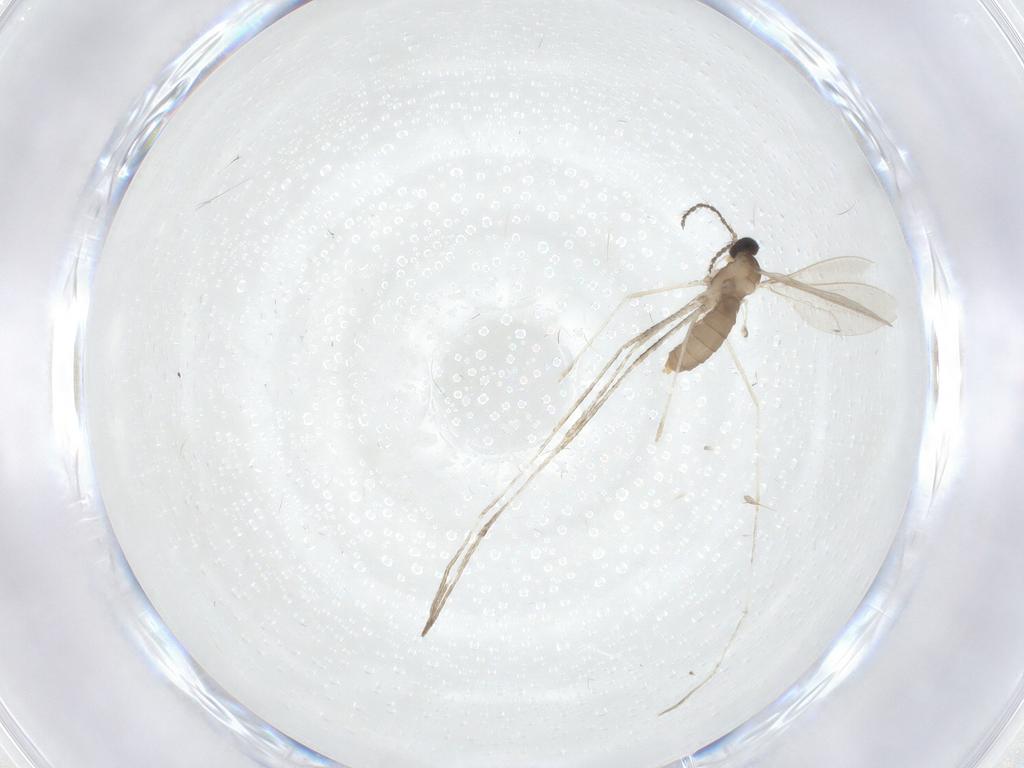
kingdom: Animalia
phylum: Arthropoda
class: Insecta
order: Diptera
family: Cecidomyiidae
